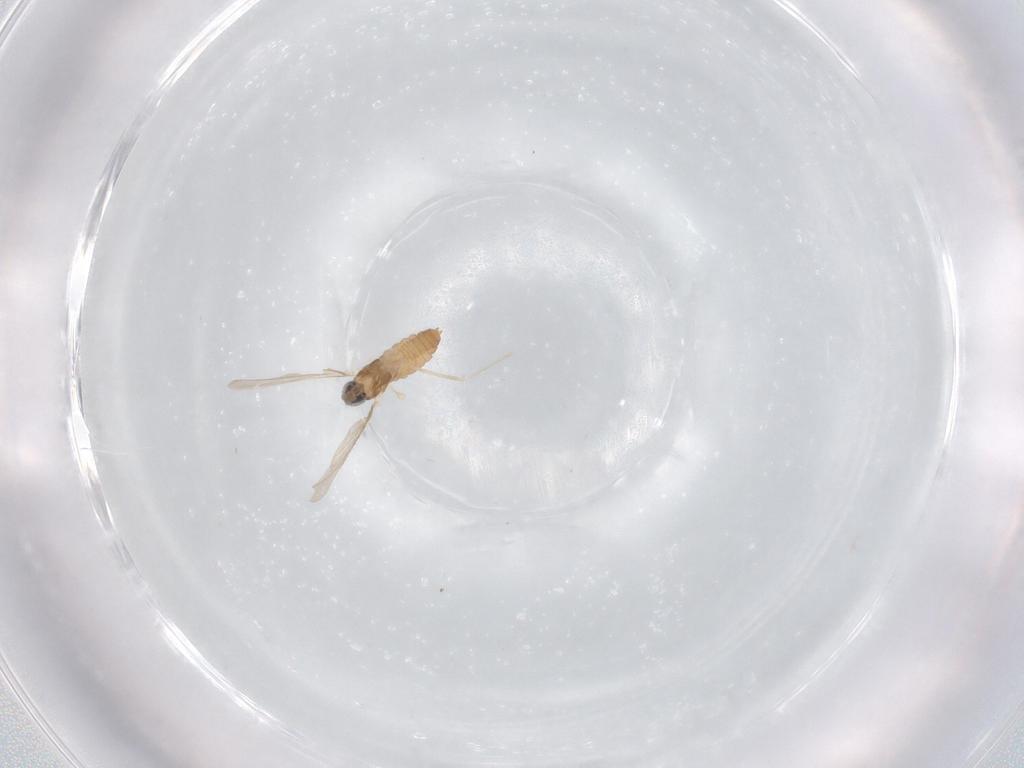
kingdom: Animalia
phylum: Arthropoda
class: Insecta
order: Diptera
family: Cecidomyiidae
